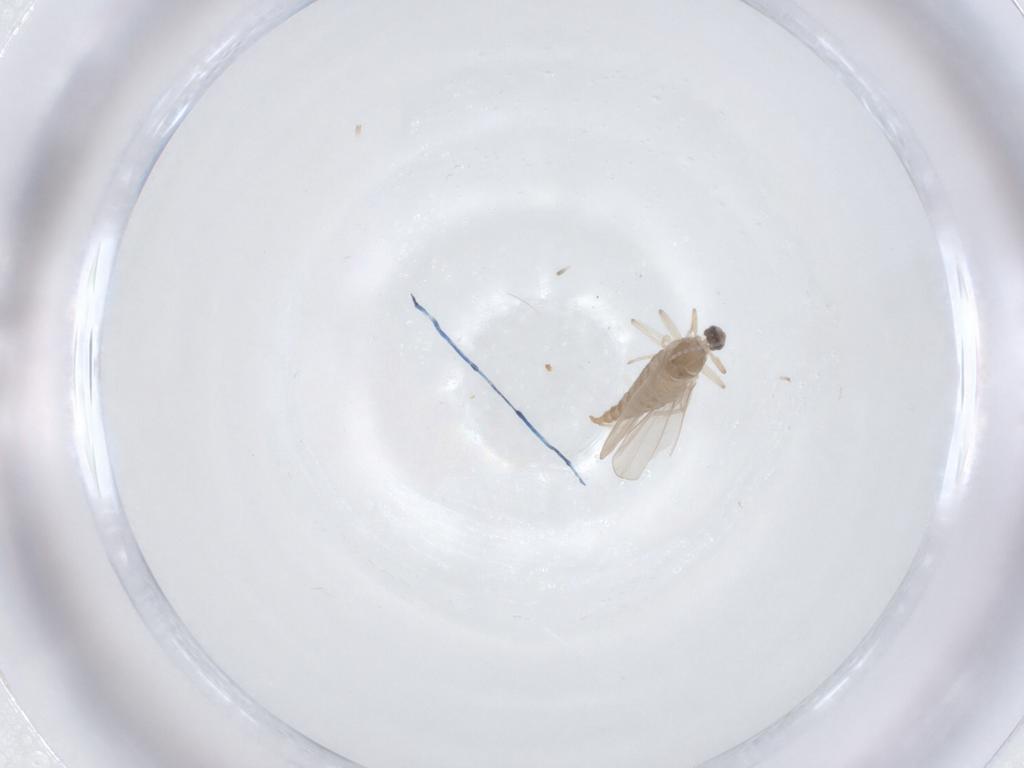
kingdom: Animalia
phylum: Arthropoda
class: Insecta
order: Diptera
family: Cecidomyiidae
